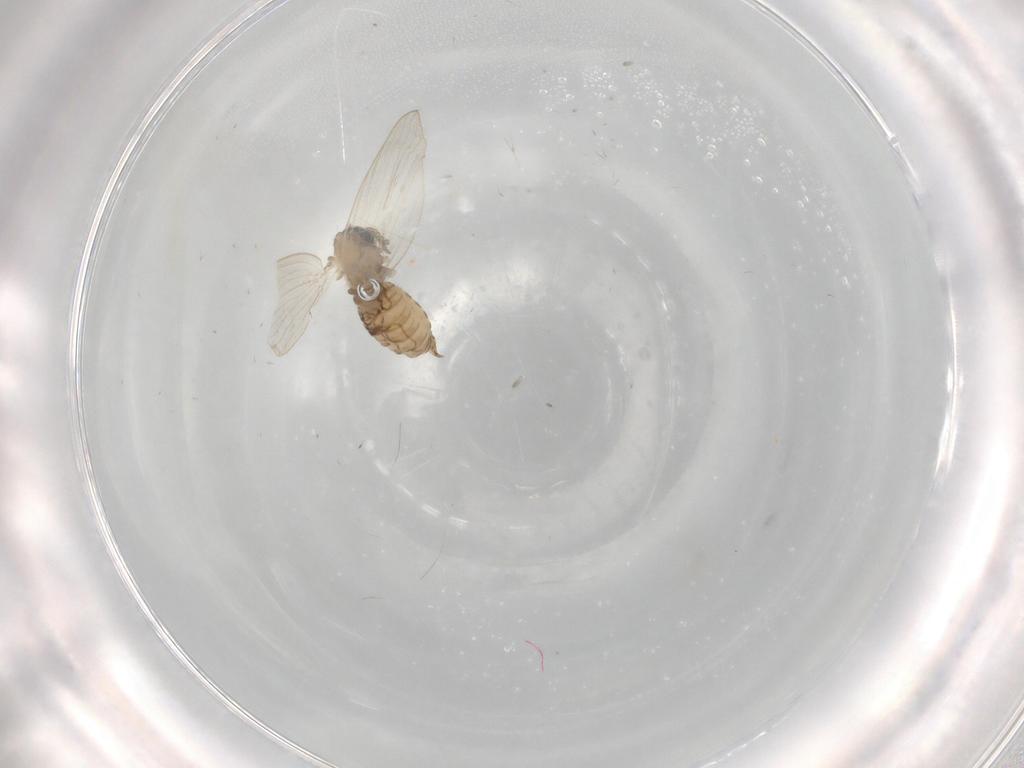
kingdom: Animalia
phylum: Arthropoda
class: Insecta
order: Diptera
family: Psychodidae
